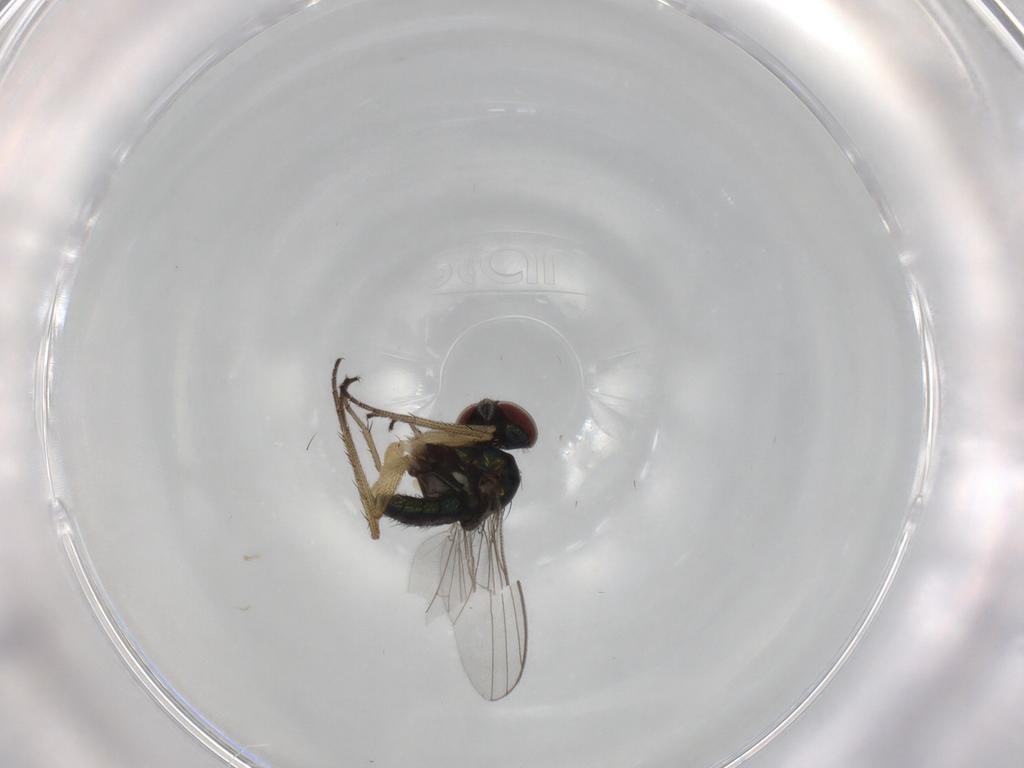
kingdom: Animalia
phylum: Arthropoda
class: Insecta
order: Diptera
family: Dolichopodidae
